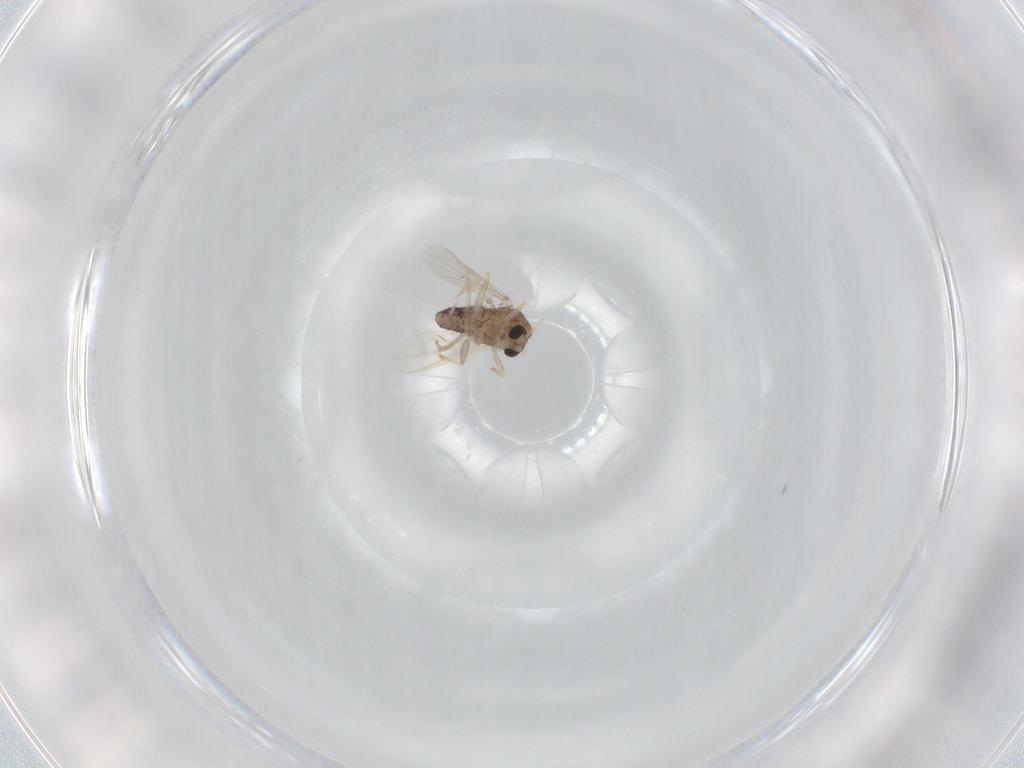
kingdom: Animalia
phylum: Arthropoda
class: Insecta
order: Diptera
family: Chironomidae
